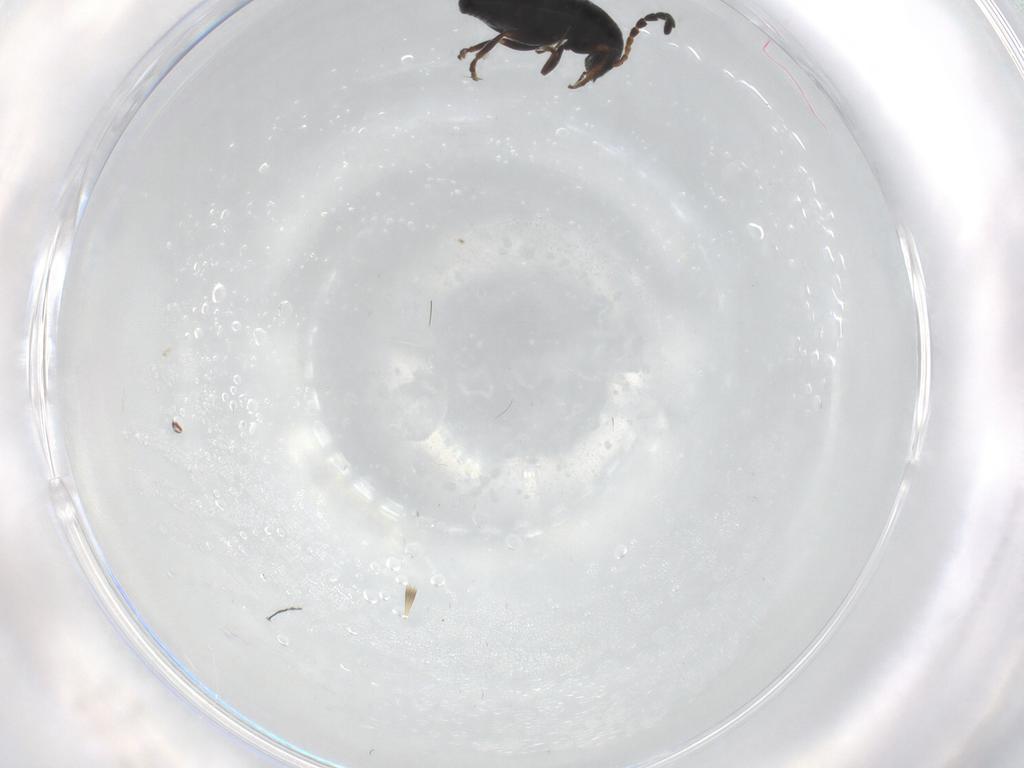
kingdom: Animalia
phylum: Arthropoda
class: Insecta
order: Coleoptera
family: Chrysomelidae
